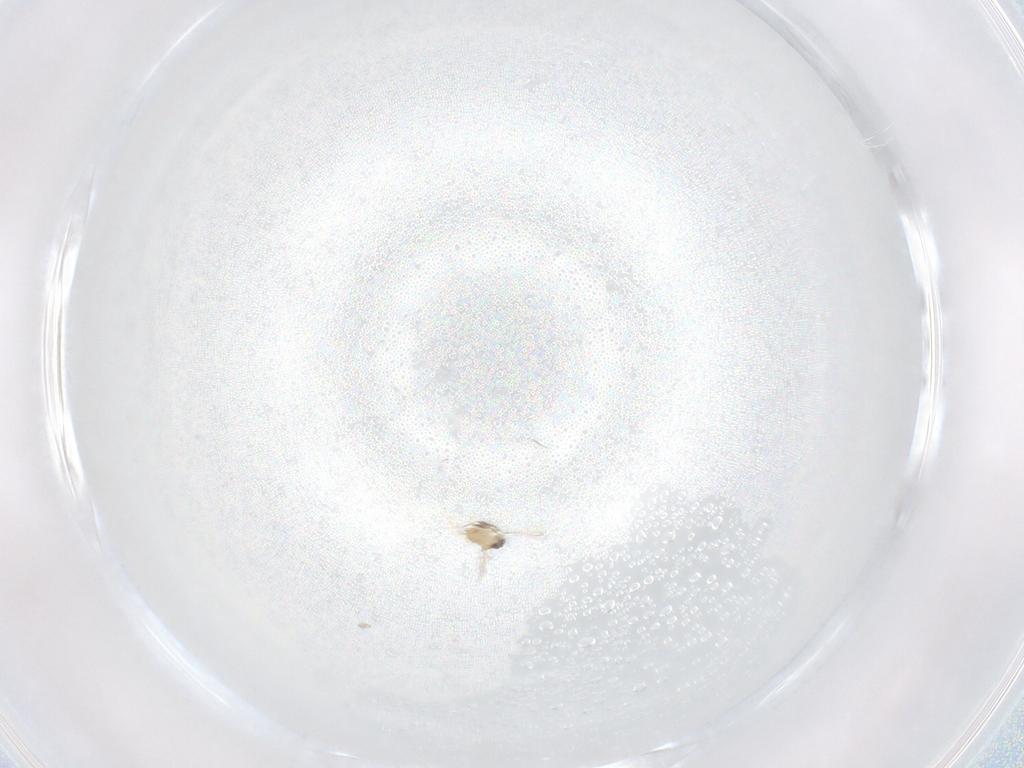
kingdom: Animalia
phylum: Arthropoda
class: Insecta
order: Hymenoptera
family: Mymaridae
